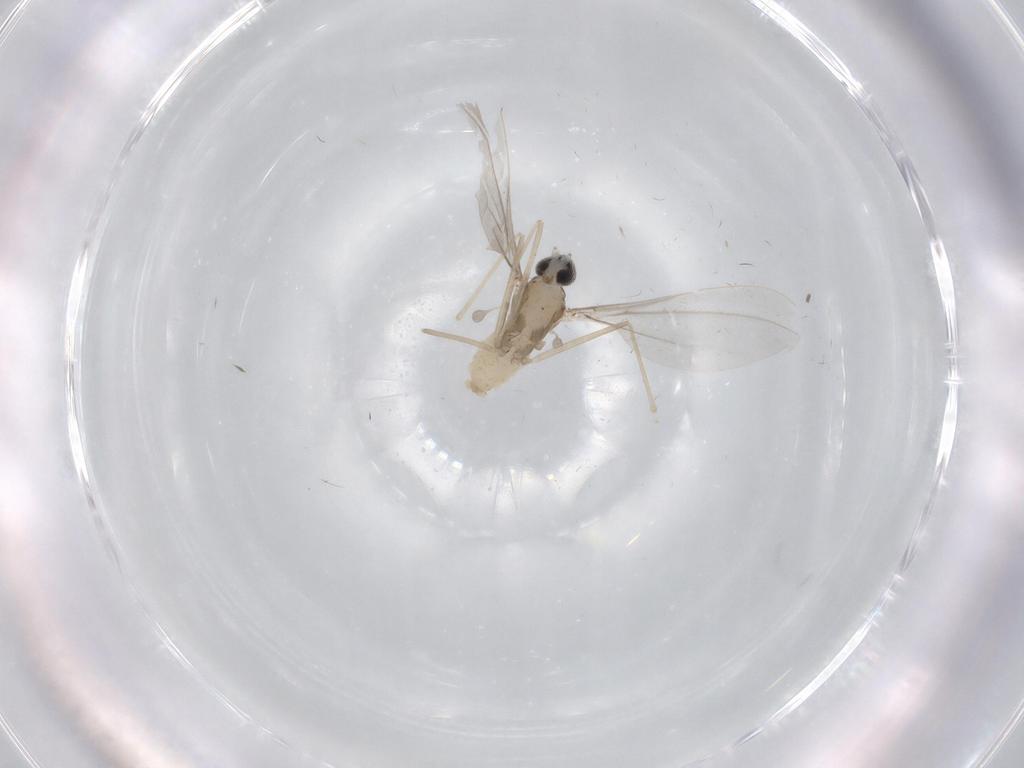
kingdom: Animalia
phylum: Arthropoda
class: Insecta
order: Diptera
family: Cecidomyiidae
